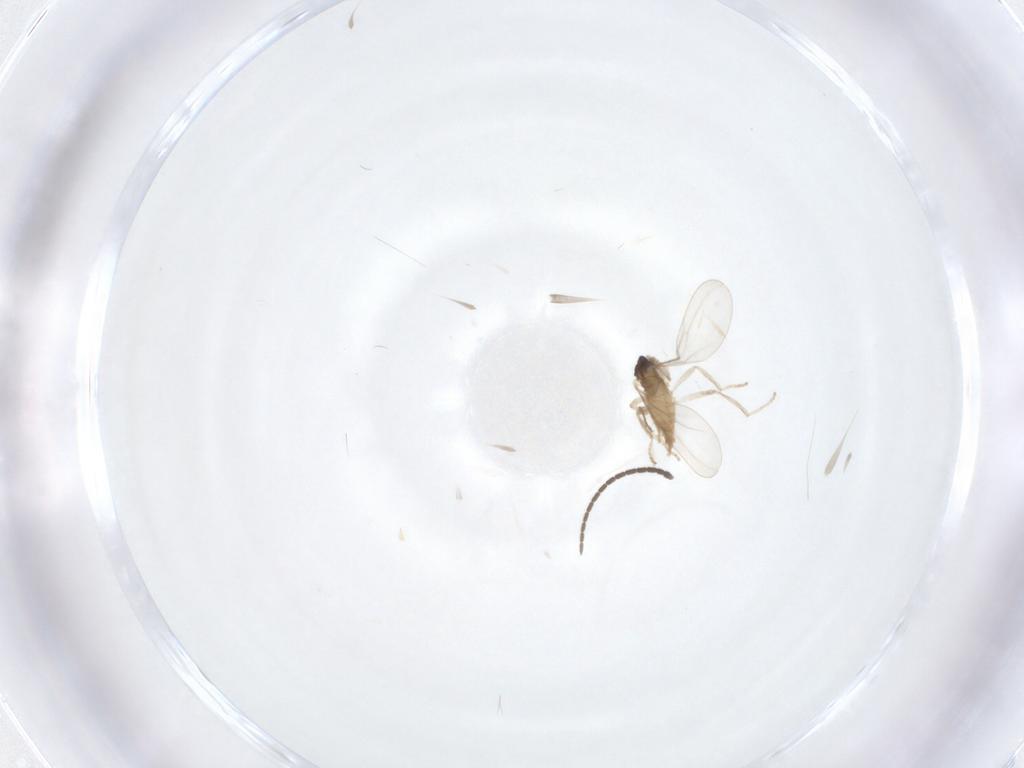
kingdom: Animalia
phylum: Arthropoda
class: Insecta
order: Diptera
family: Cecidomyiidae
